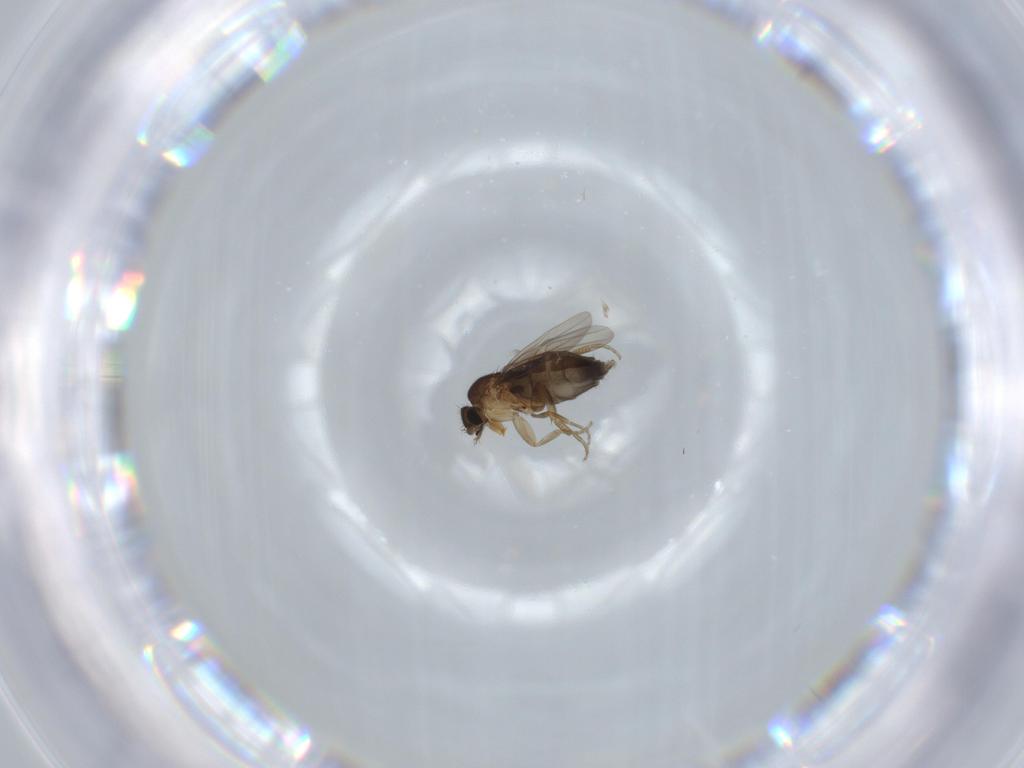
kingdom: Animalia
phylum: Arthropoda
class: Insecta
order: Diptera
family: Phoridae
